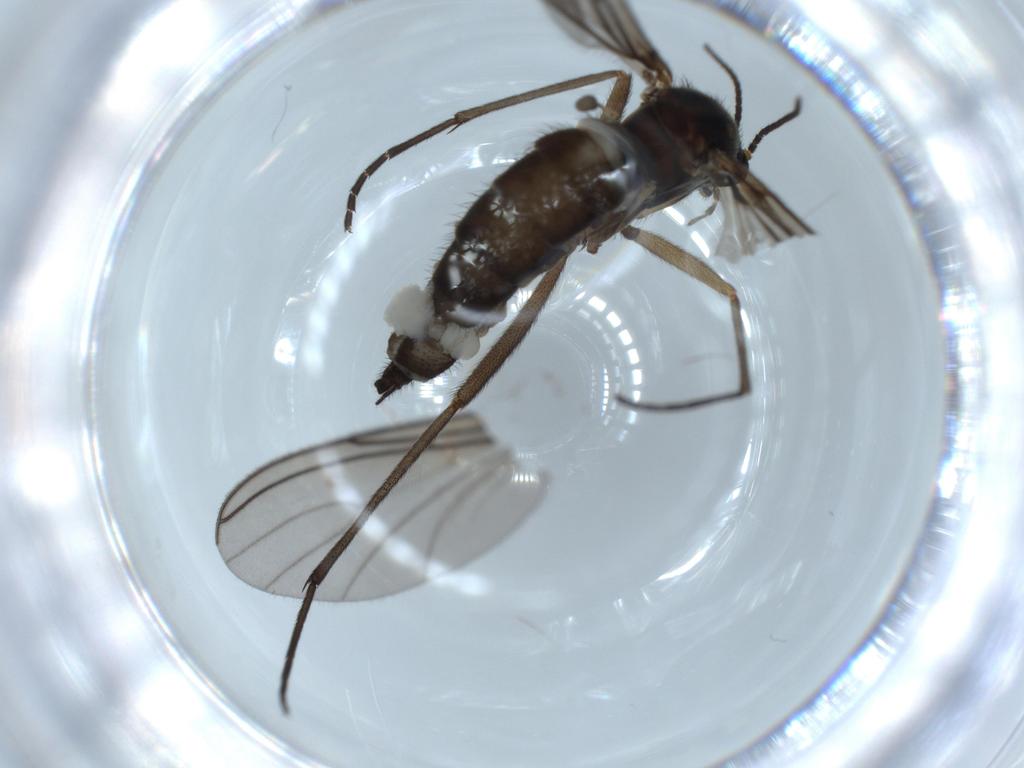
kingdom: Animalia
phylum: Arthropoda
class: Insecta
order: Diptera
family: Sciaridae
